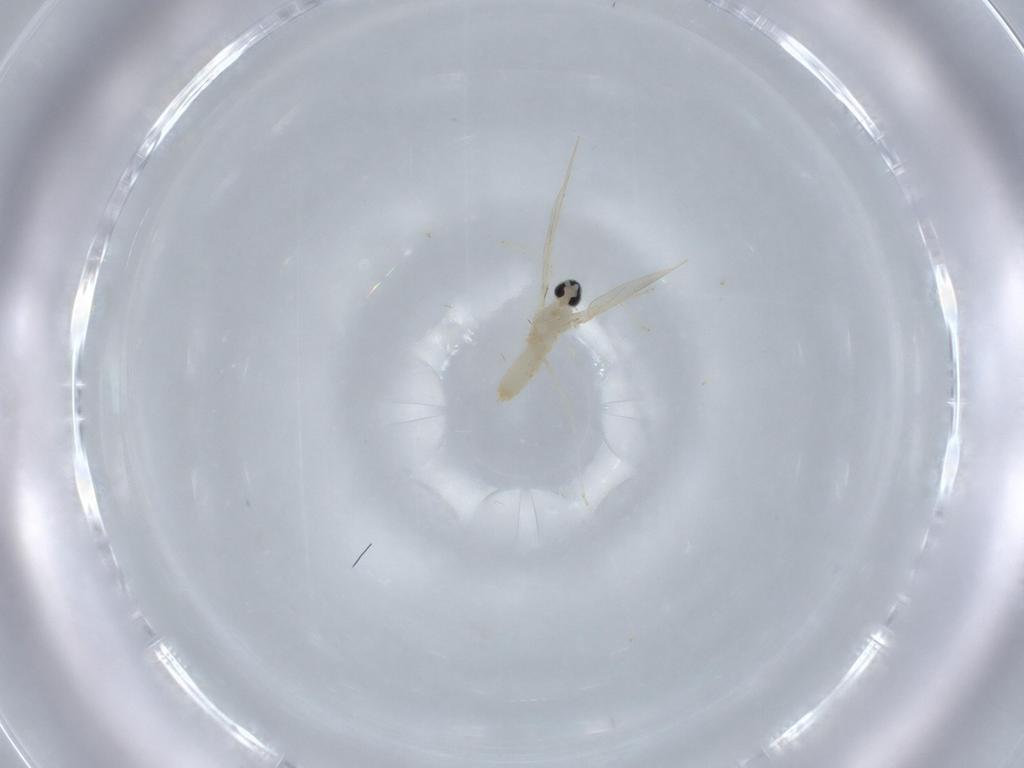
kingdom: Animalia
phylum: Arthropoda
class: Insecta
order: Diptera
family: Cecidomyiidae
